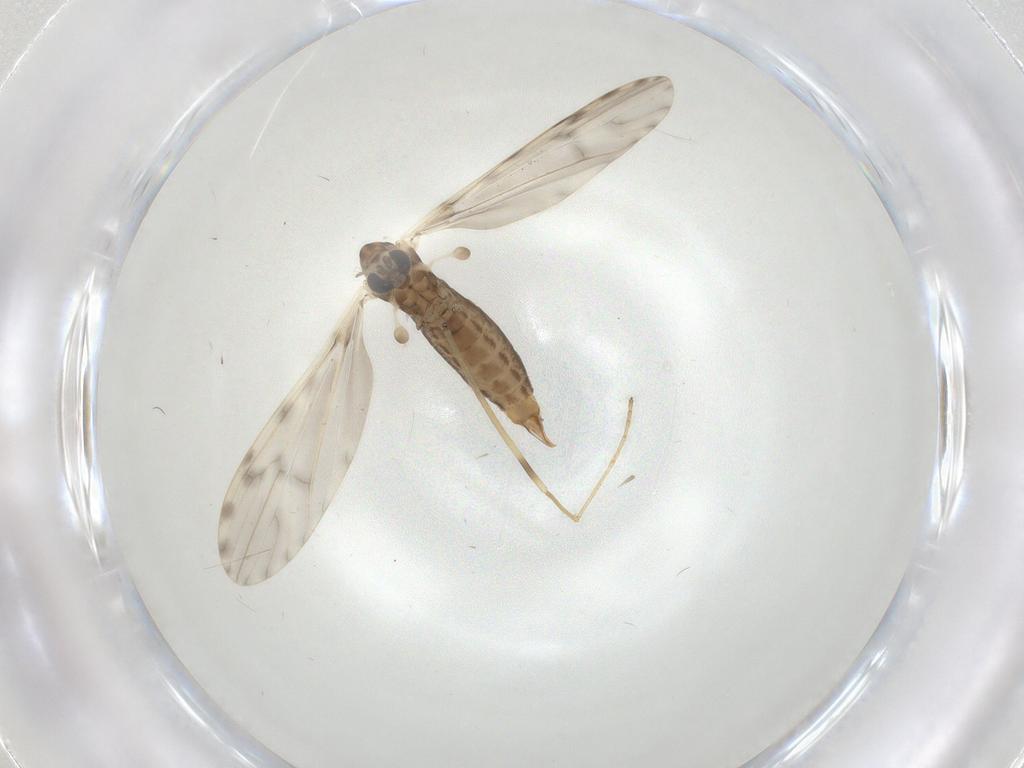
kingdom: Animalia
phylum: Arthropoda
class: Insecta
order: Diptera
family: Limoniidae
